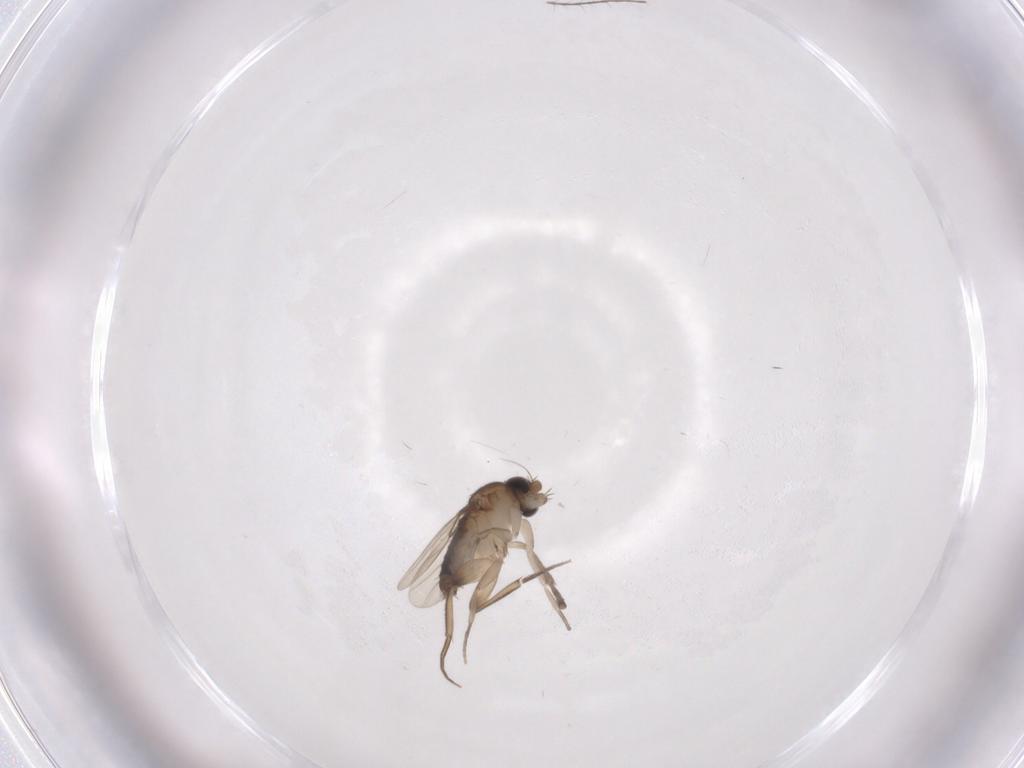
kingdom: Animalia
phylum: Arthropoda
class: Insecta
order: Diptera
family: Psychodidae
